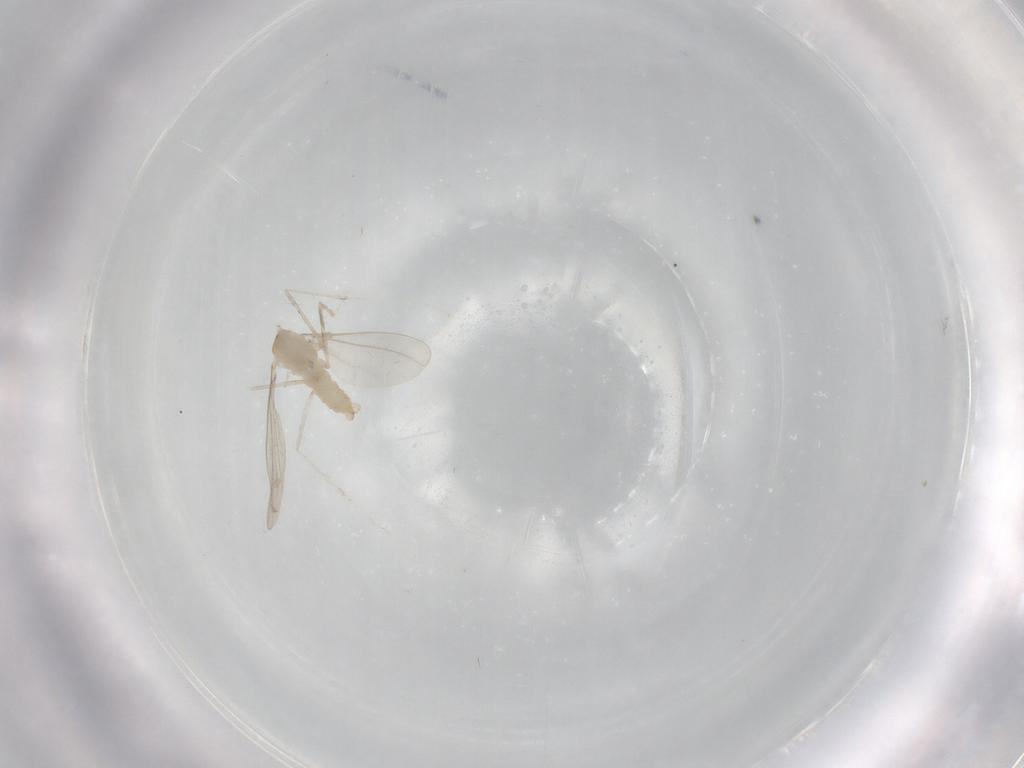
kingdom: Animalia
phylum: Arthropoda
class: Insecta
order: Diptera
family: Cecidomyiidae
